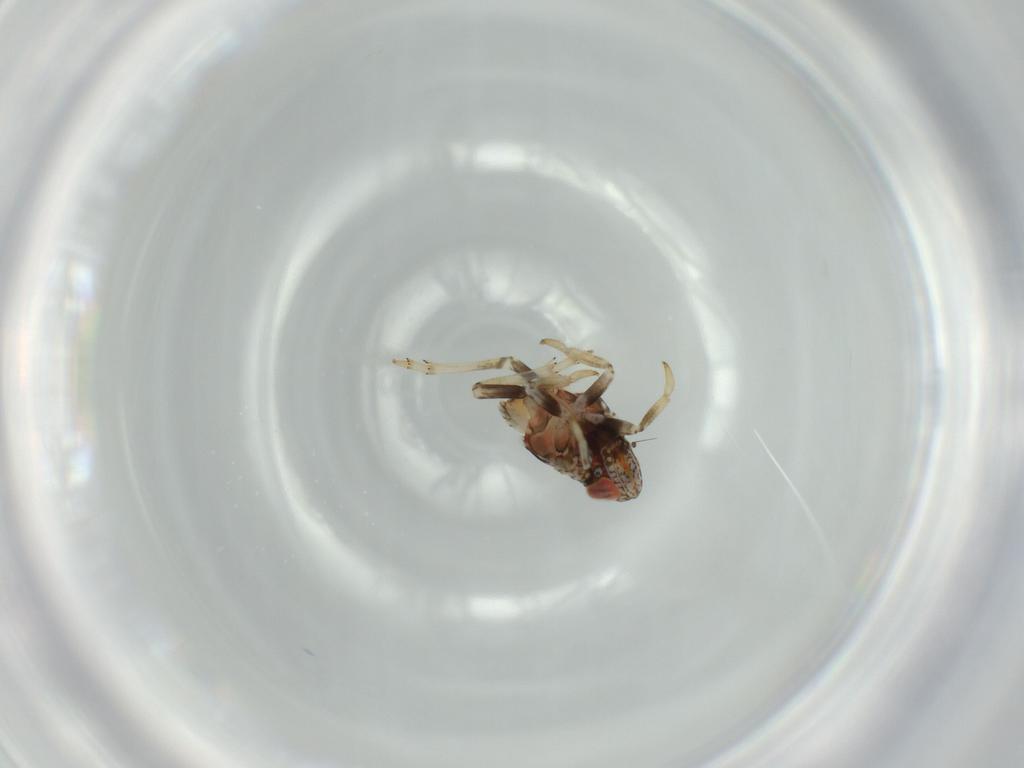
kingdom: Animalia
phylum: Arthropoda
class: Insecta
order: Hemiptera
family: Issidae
